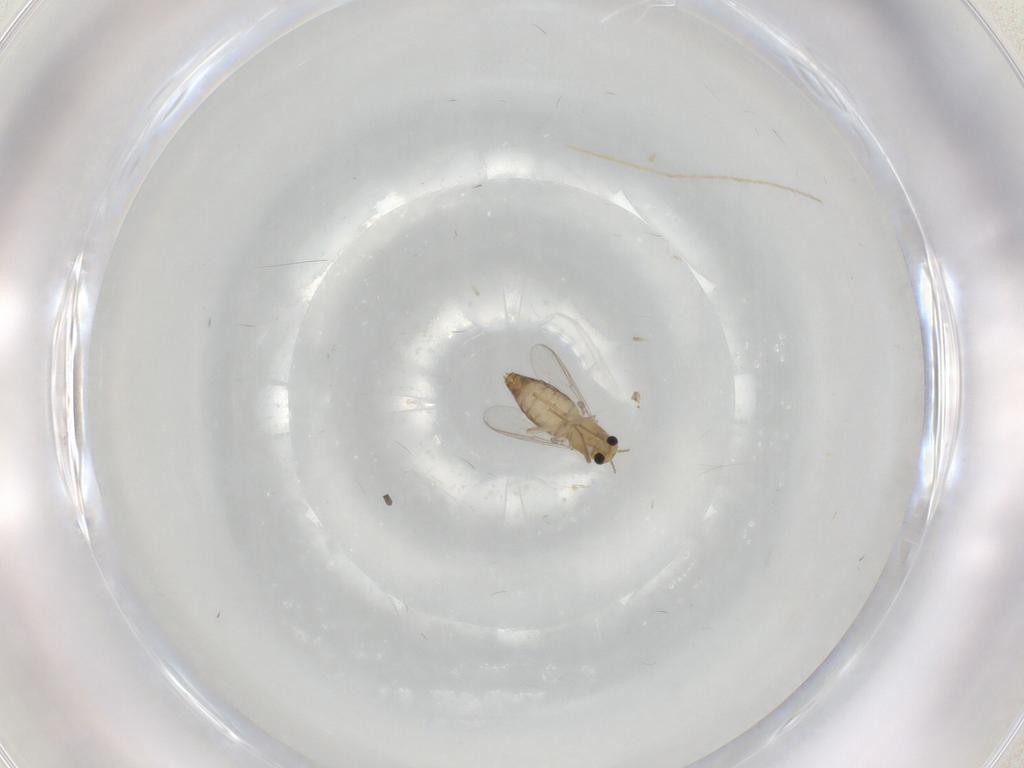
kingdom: Animalia
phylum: Arthropoda
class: Insecta
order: Diptera
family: Chironomidae
